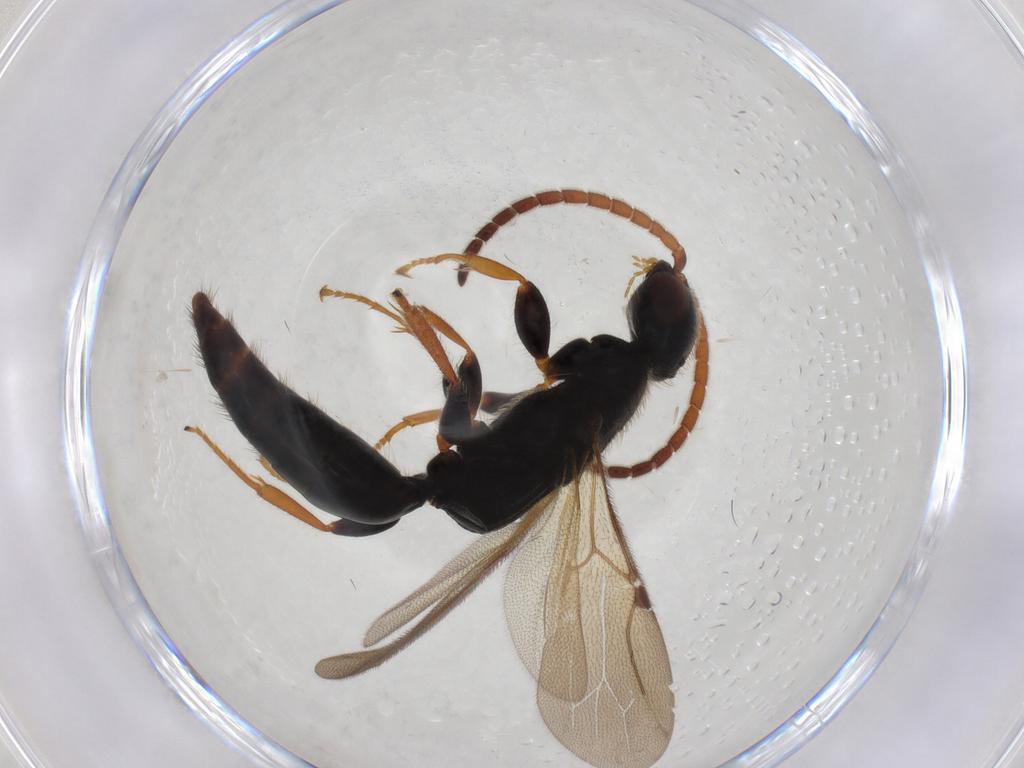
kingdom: Animalia
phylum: Arthropoda
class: Insecta
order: Hymenoptera
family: Bethylidae
